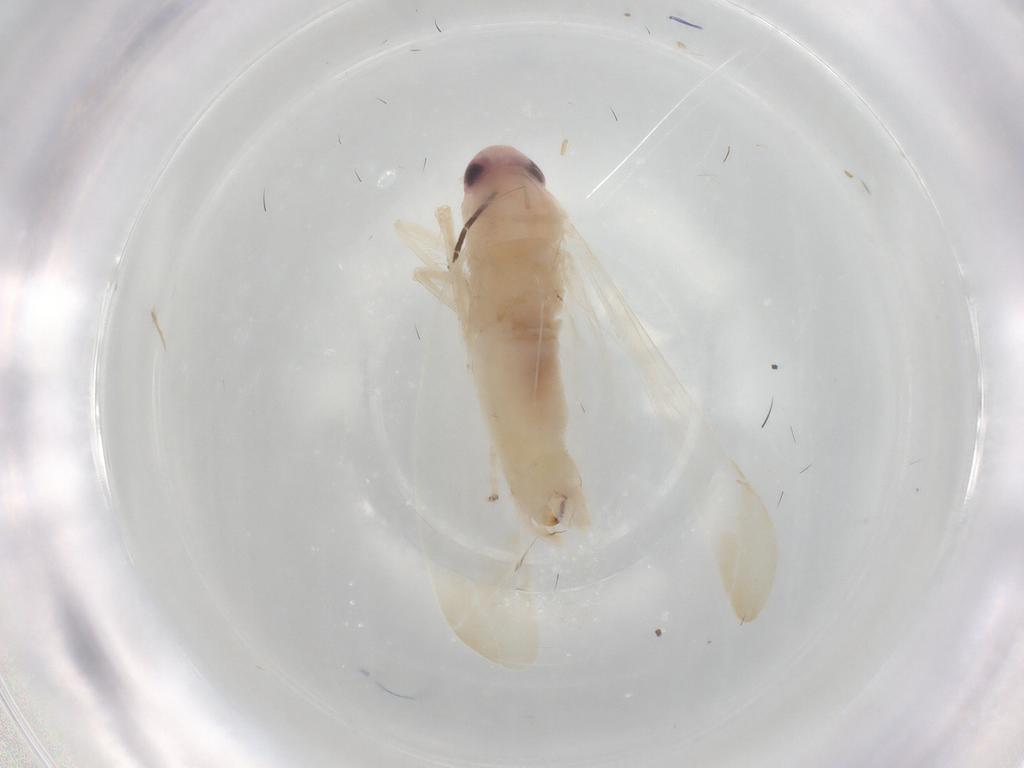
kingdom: Animalia
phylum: Arthropoda
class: Insecta
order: Hemiptera
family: Cicadellidae
